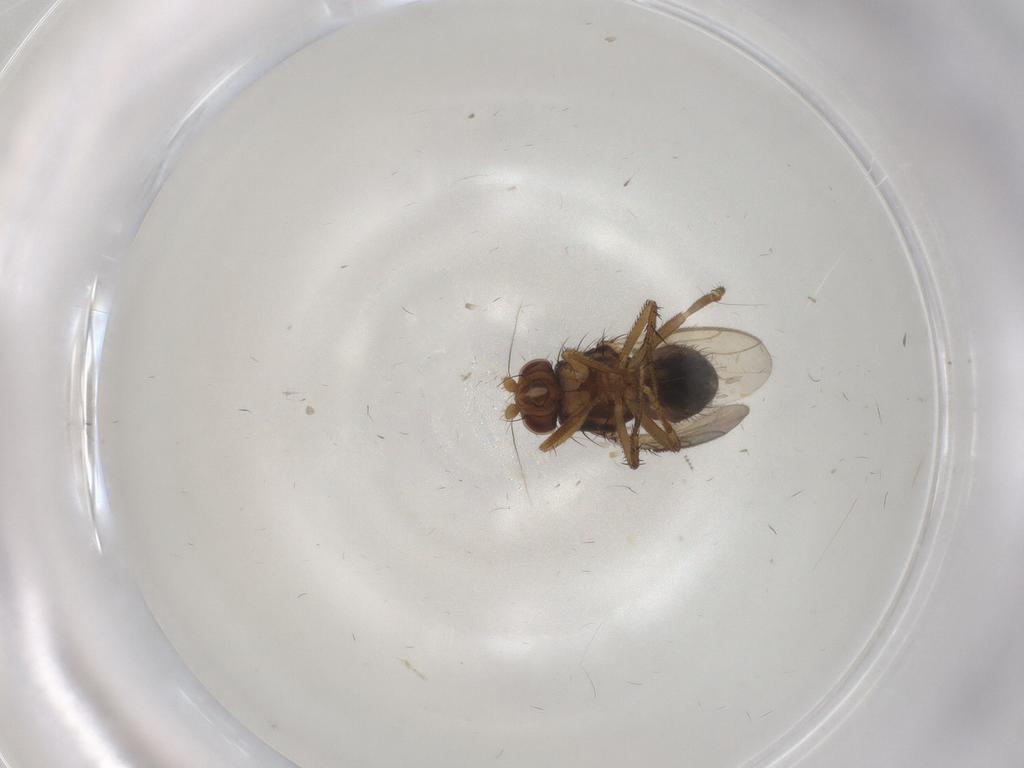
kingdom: Animalia
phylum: Arthropoda
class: Insecta
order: Diptera
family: Sphaeroceridae
